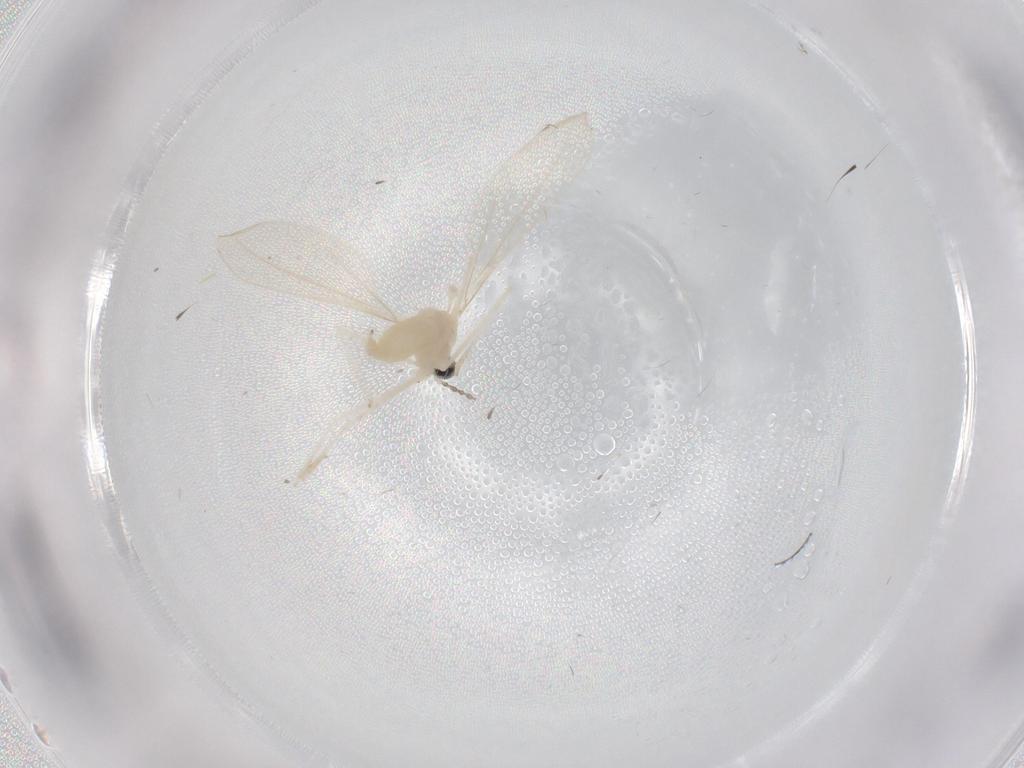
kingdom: Animalia
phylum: Arthropoda
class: Insecta
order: Diptera
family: Cecidomyiidae
